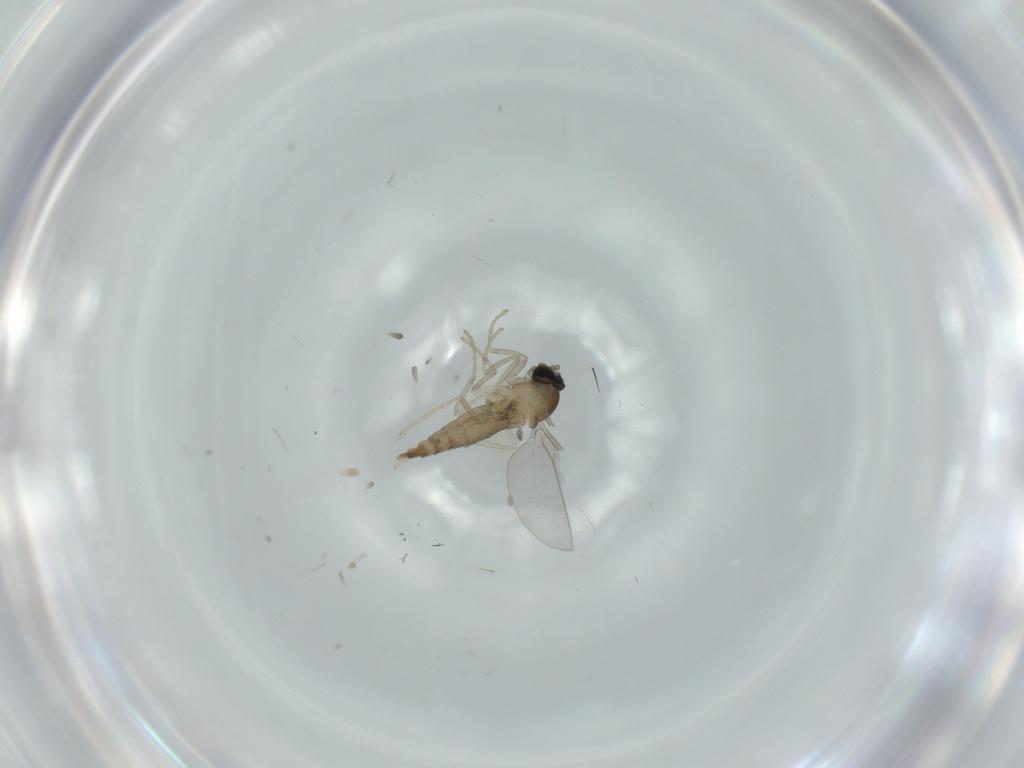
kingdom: Animalia
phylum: Arthropoda
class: Insecta
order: Diptera
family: Cecidomyiidae
